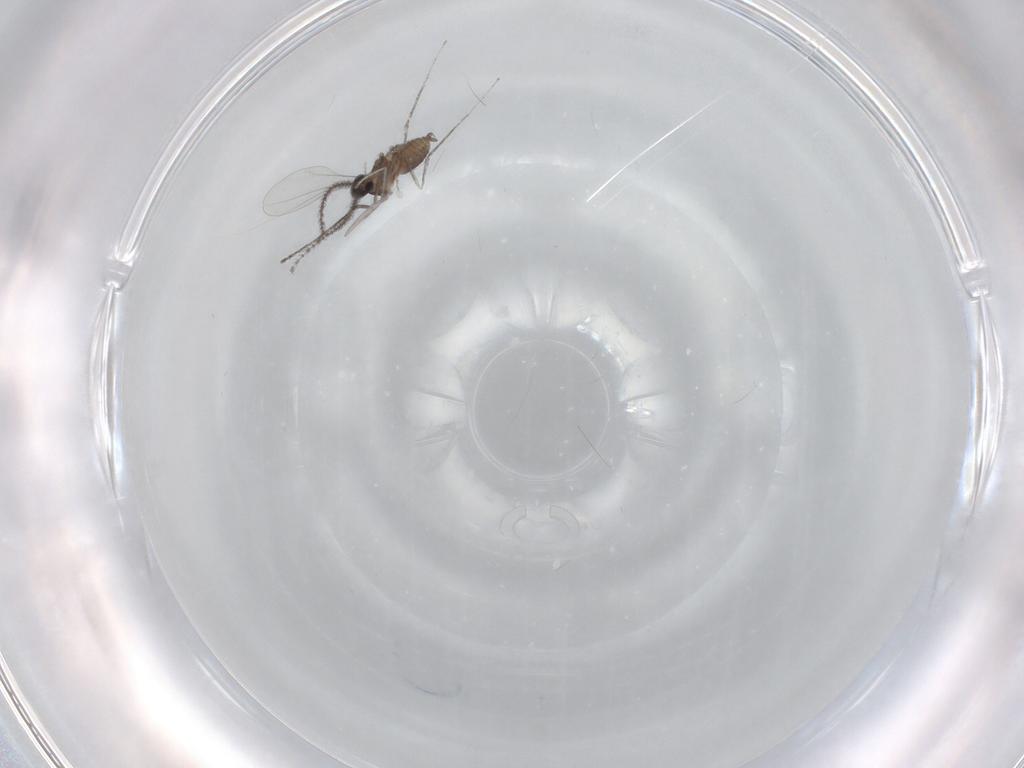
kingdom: Animalia
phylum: Arthropoda
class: Insecta
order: Diptera
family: Cecidomyiidae
